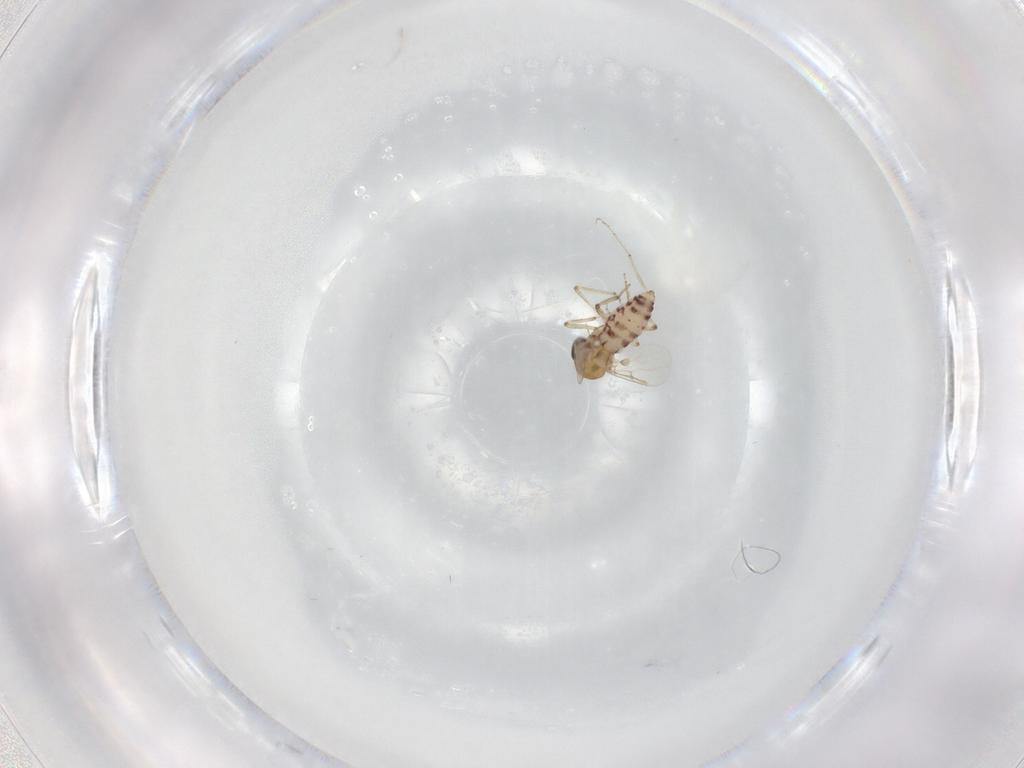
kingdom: Animalia
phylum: Arthropoda
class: Insecta
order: Diptera
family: Ceratopogonidae
